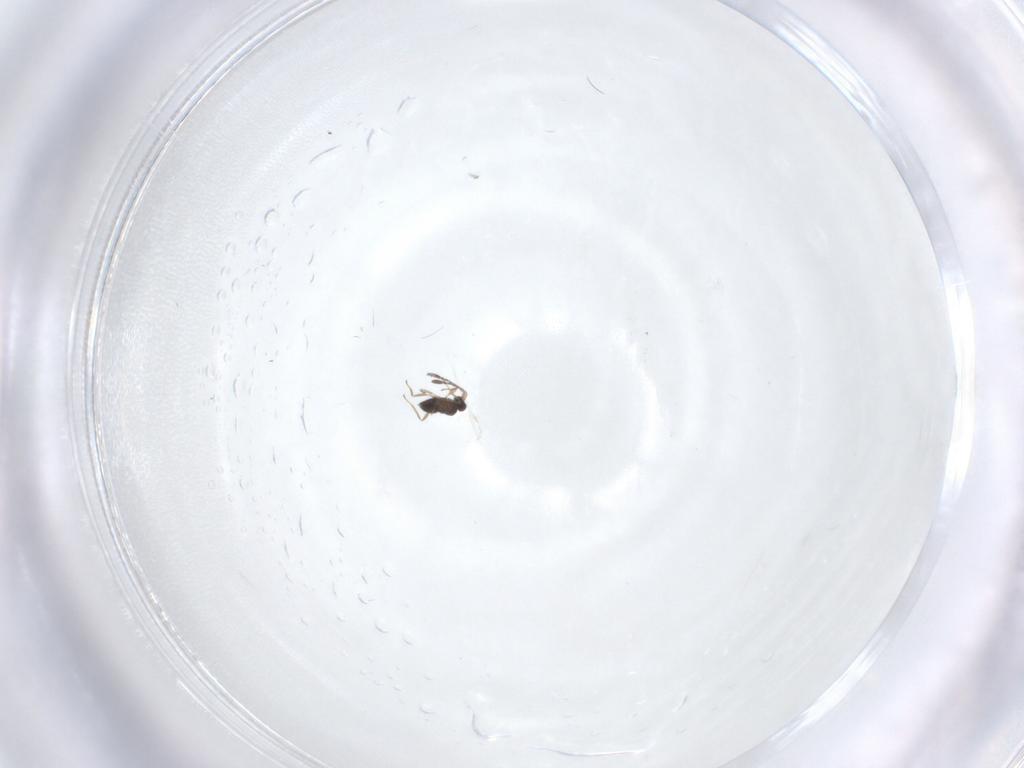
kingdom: Animalia
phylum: Arthropoda
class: Insecta
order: Hymenoptera
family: Mymaridae
